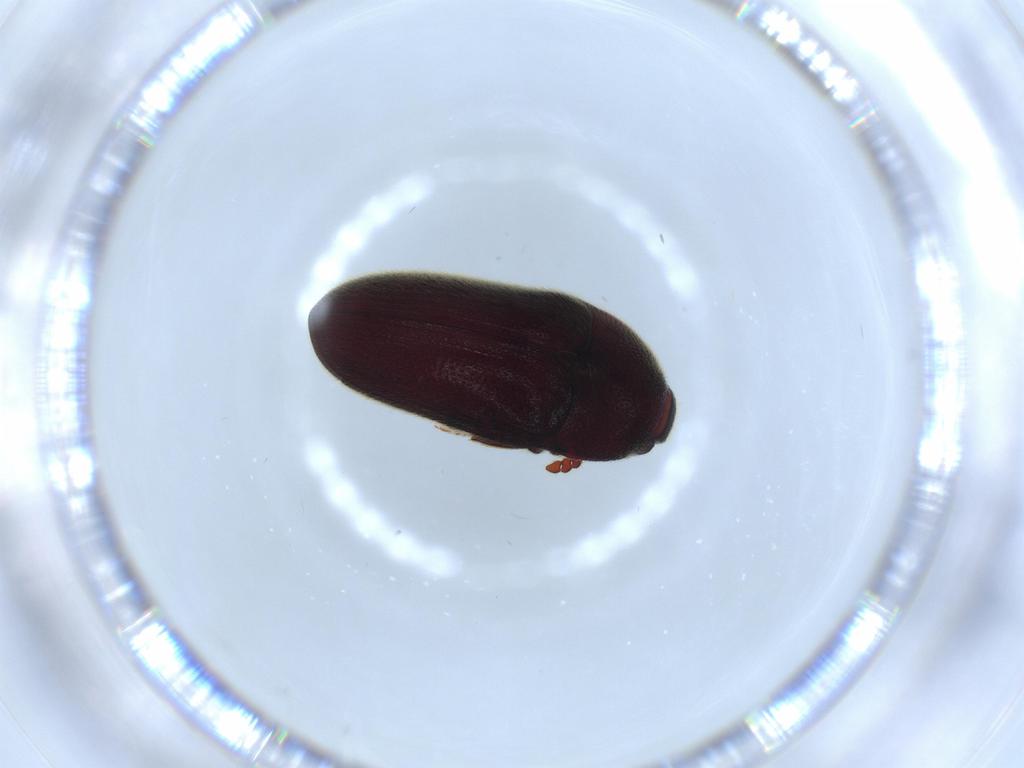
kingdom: Animalia
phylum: Arthropoda
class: Insecta
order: Coleoptera
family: Throscidae
